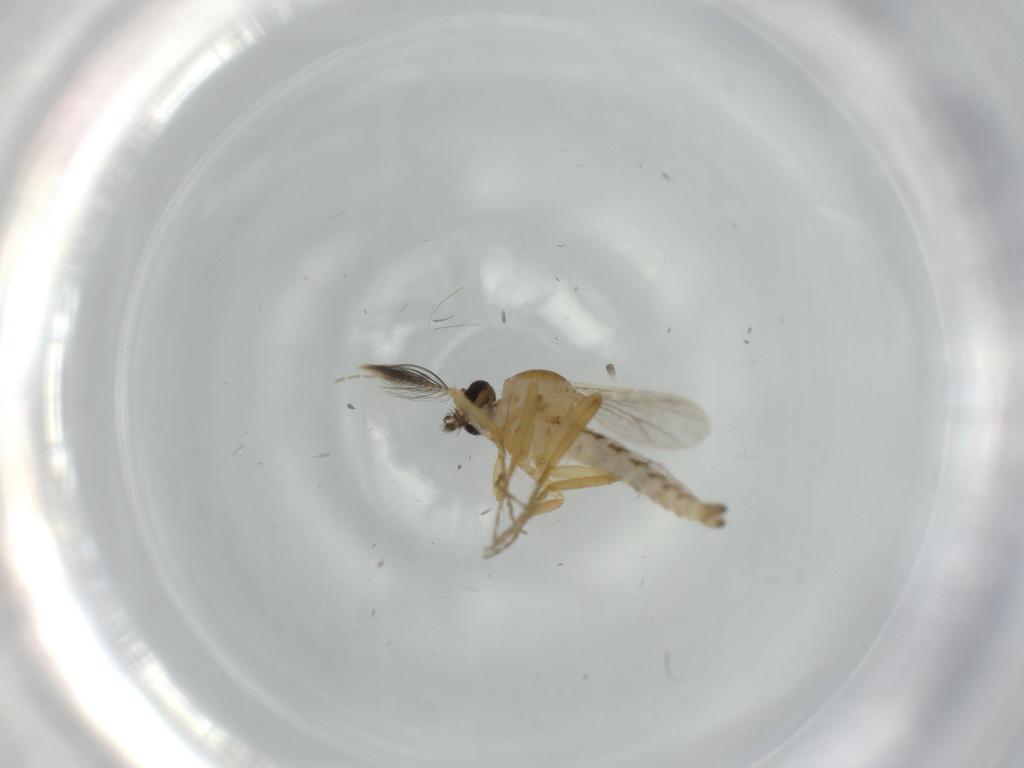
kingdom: Animalia
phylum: Arthropoda
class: Insecta
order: Diptera
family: Ceratopogonidae
